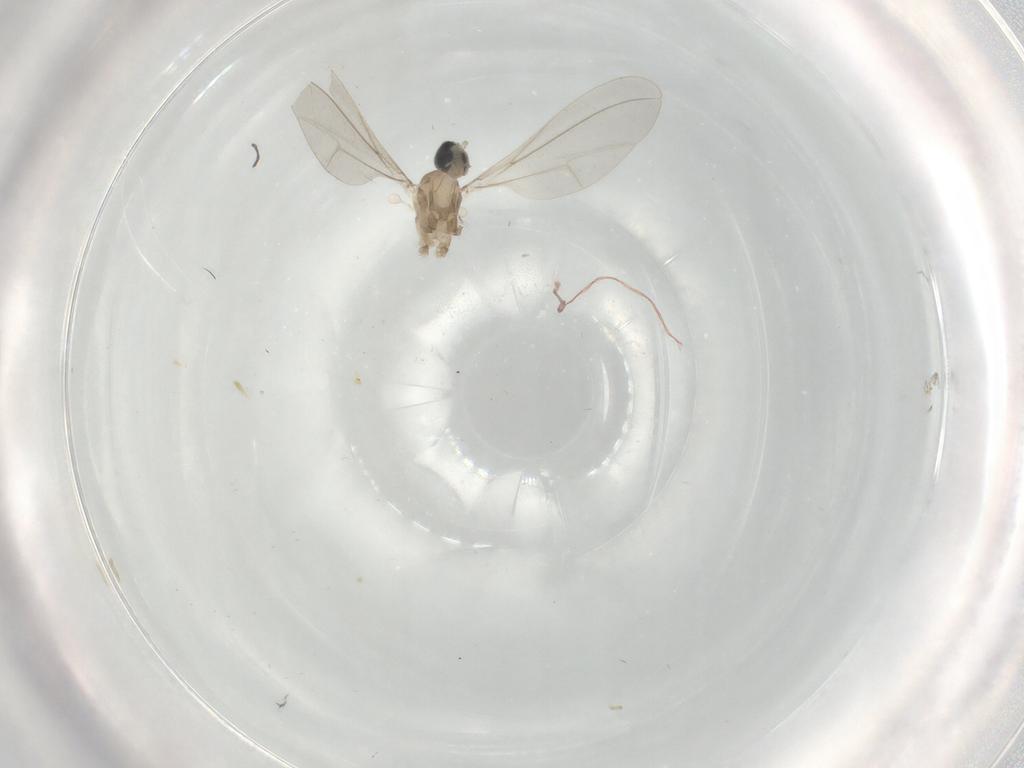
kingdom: Animalia
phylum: Arthropoda
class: Insecta
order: Diptera
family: Cecidomyiidae
